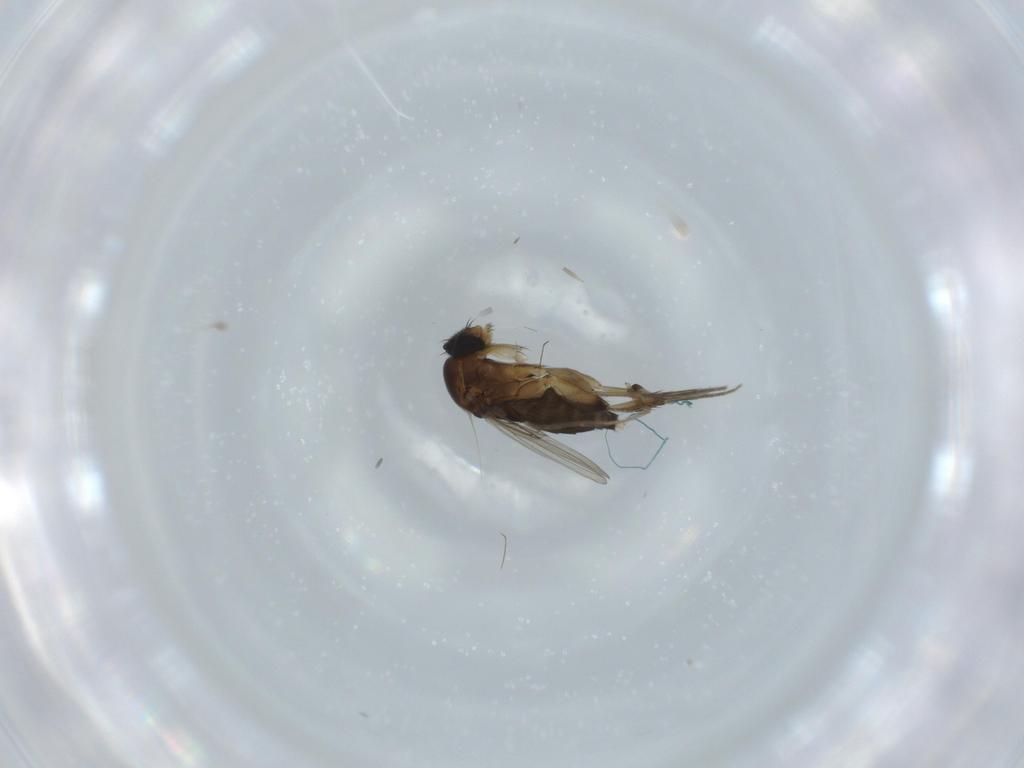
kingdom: Animalia
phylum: Arthropoda
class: Insecta
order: Diptera
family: Phoridae
